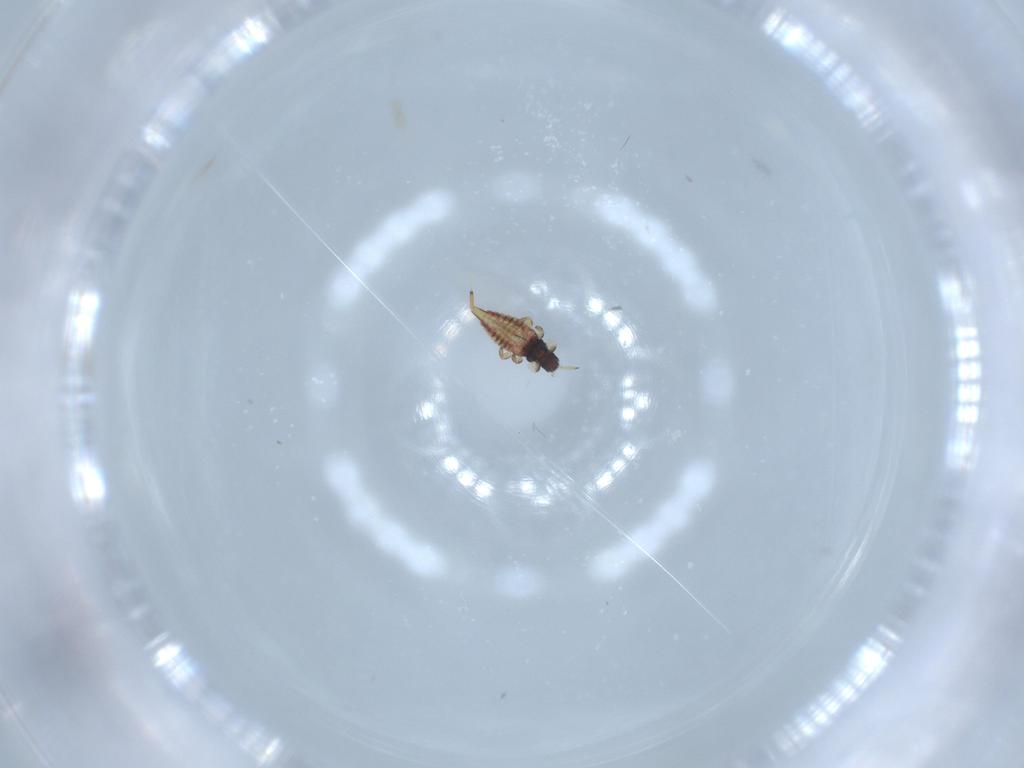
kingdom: Animalia
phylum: Arthropoda
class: Insecta
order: Thysanoptera
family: Phlaeothripidae
